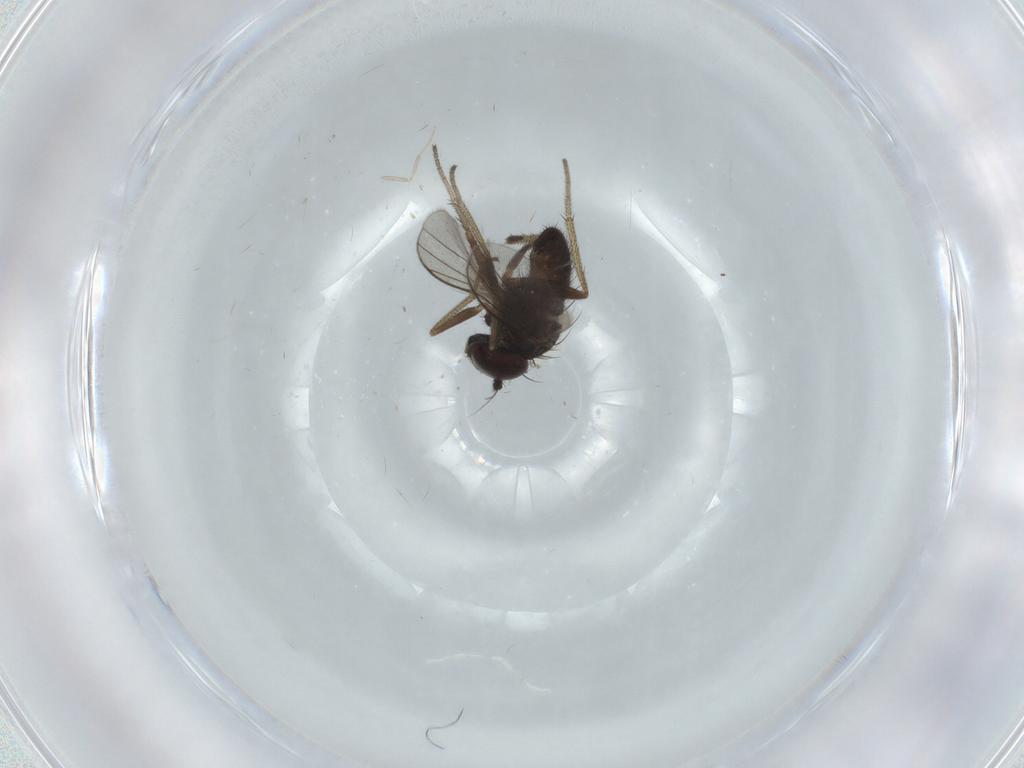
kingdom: Animalia
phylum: Arthropoda
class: Insecta
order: Diptera
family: Dolichopodidae
